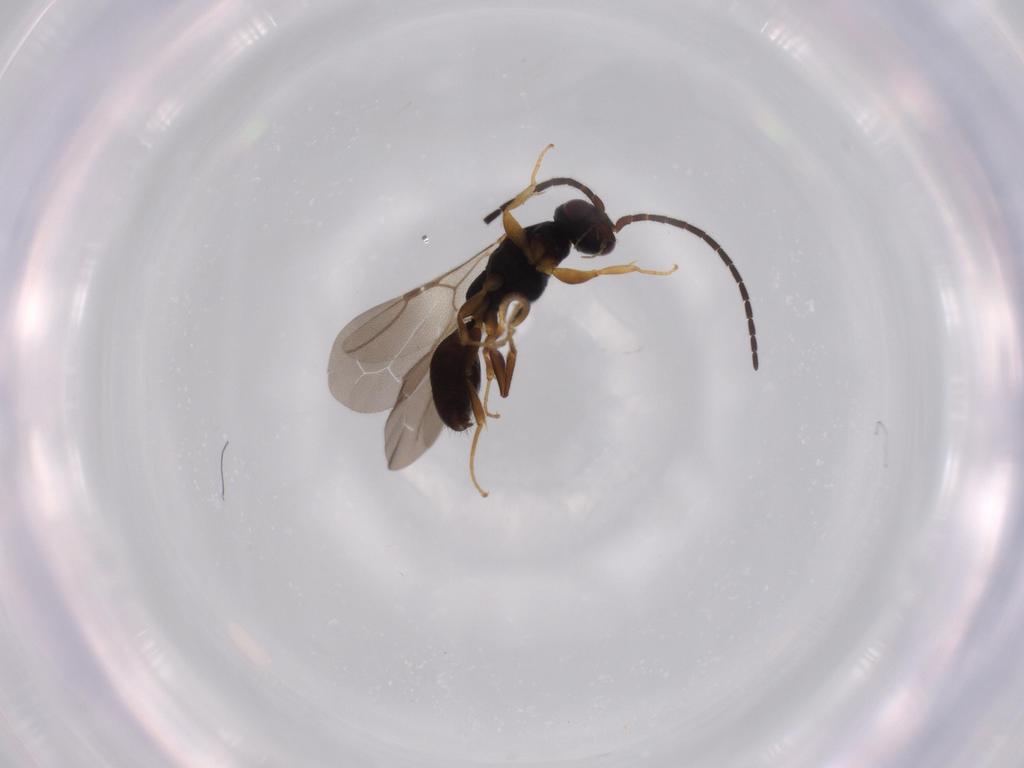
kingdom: Animalia
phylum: Arthropoda
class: Insecta
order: Hymenoptera
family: Bethylidae
